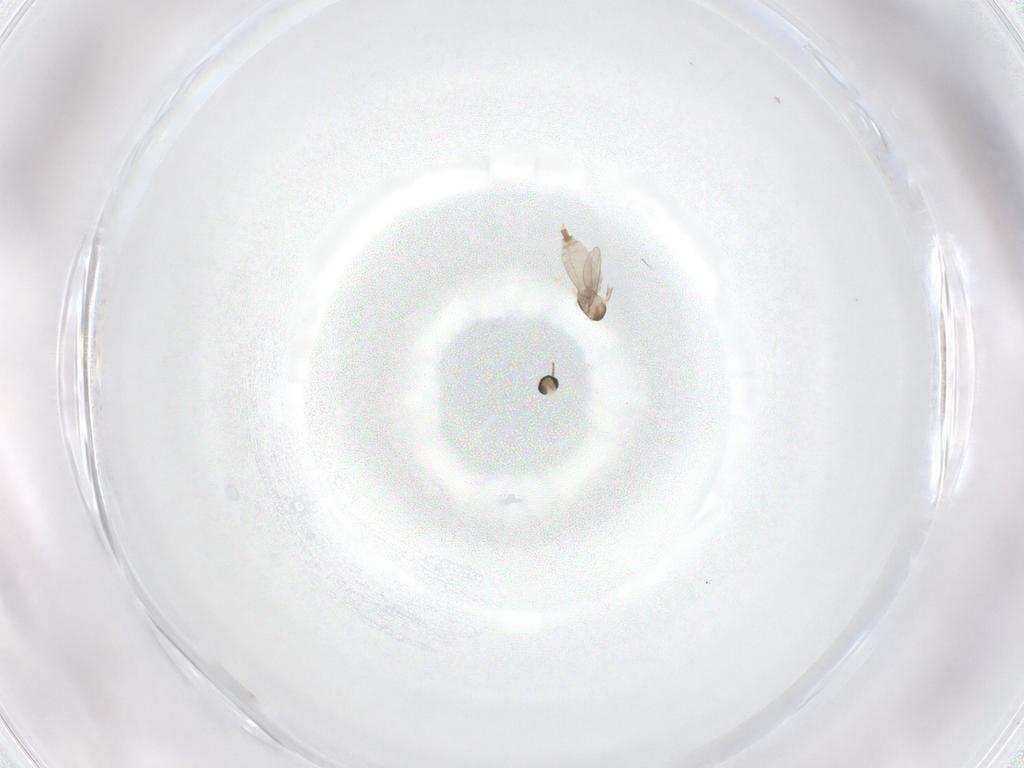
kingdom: Animalia
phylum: Arthropoda
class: Insecta
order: Diptera
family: Cecidomyiidae
